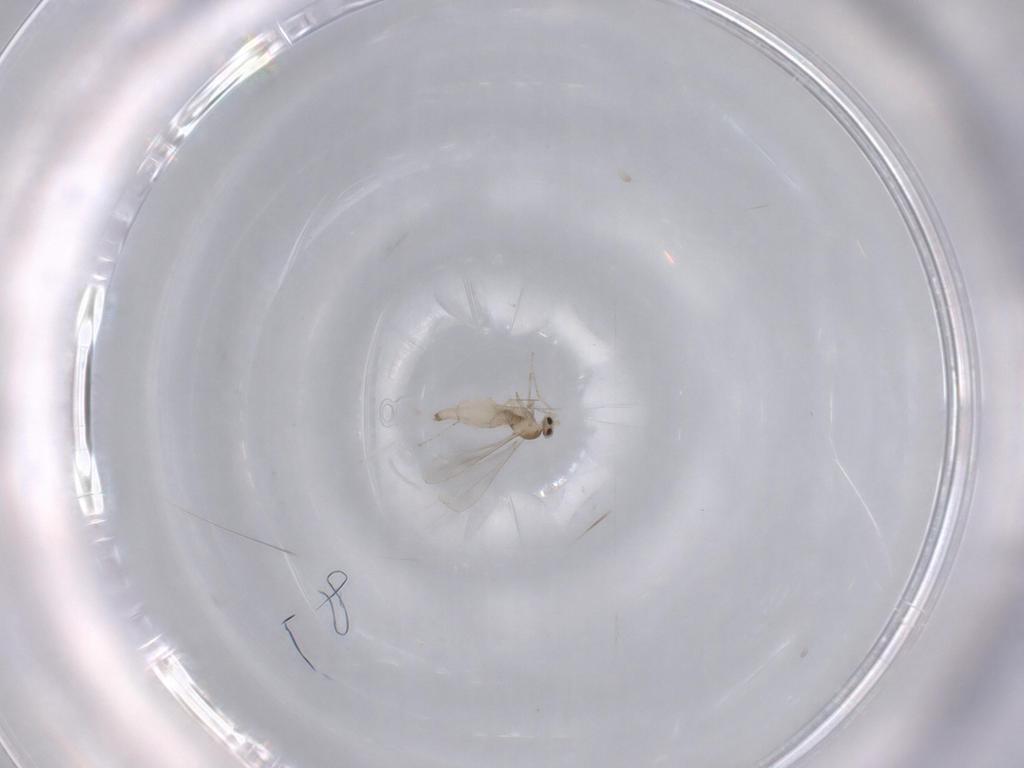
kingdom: Animalia
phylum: Arthropoda
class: Insecta
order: Diptera
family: Cecidomyiidae
